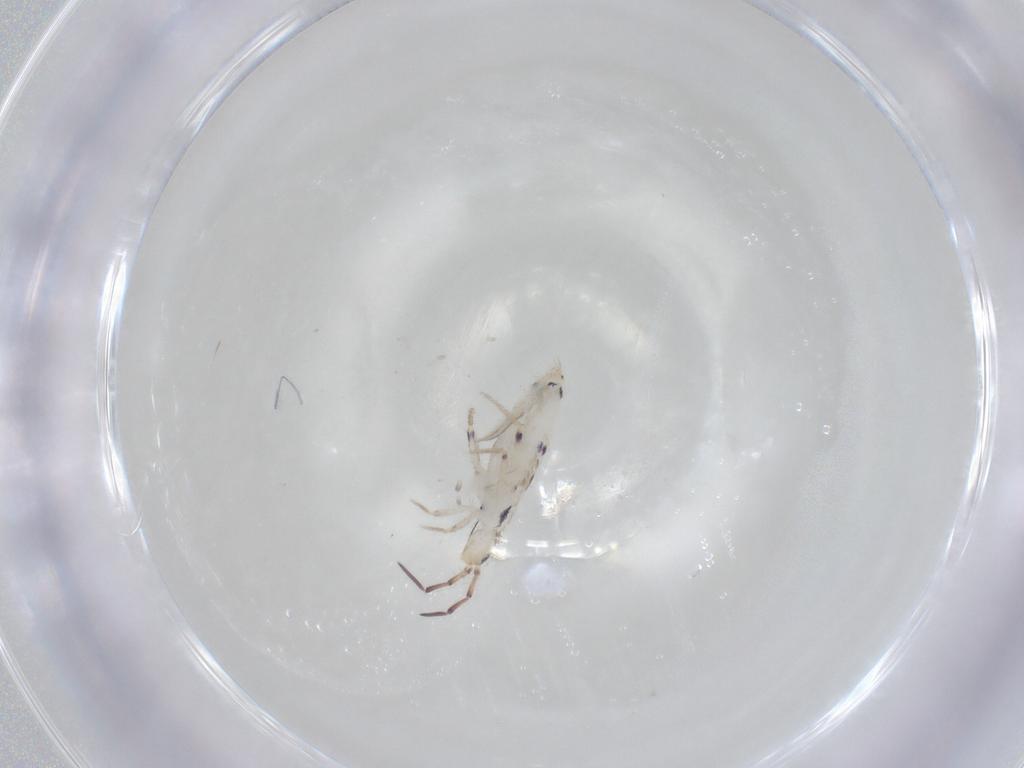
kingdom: Animalia
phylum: Arthropoda
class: Collembola
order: Entomobryomorpha
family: Entomobryidae
